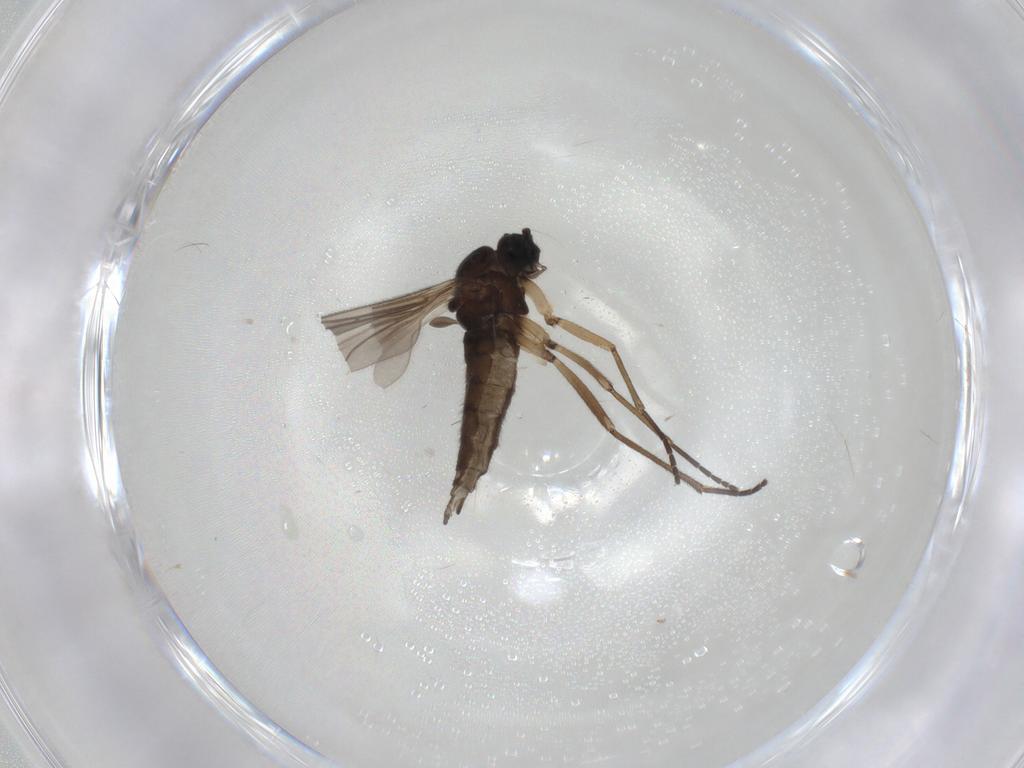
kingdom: Animalia
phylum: Arthropoda
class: Insecta
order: Diptera
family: Sciaridae
